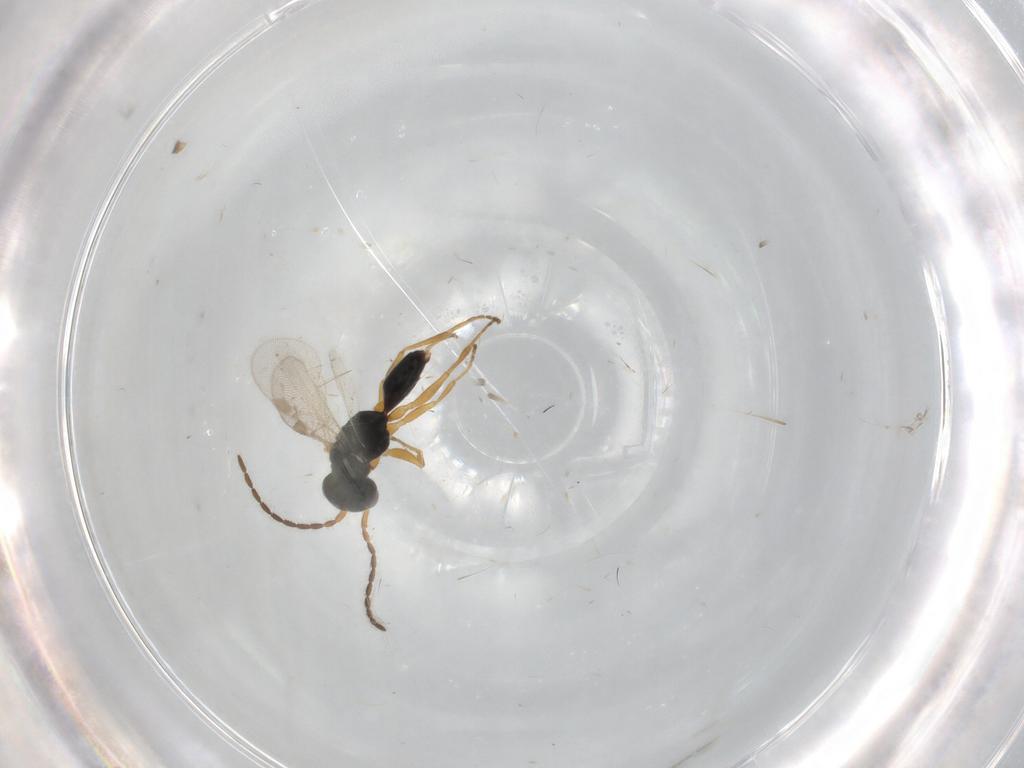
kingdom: Animalia
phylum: Arthropoda
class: Insecta
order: Hymenoptera
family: Dryinidae
